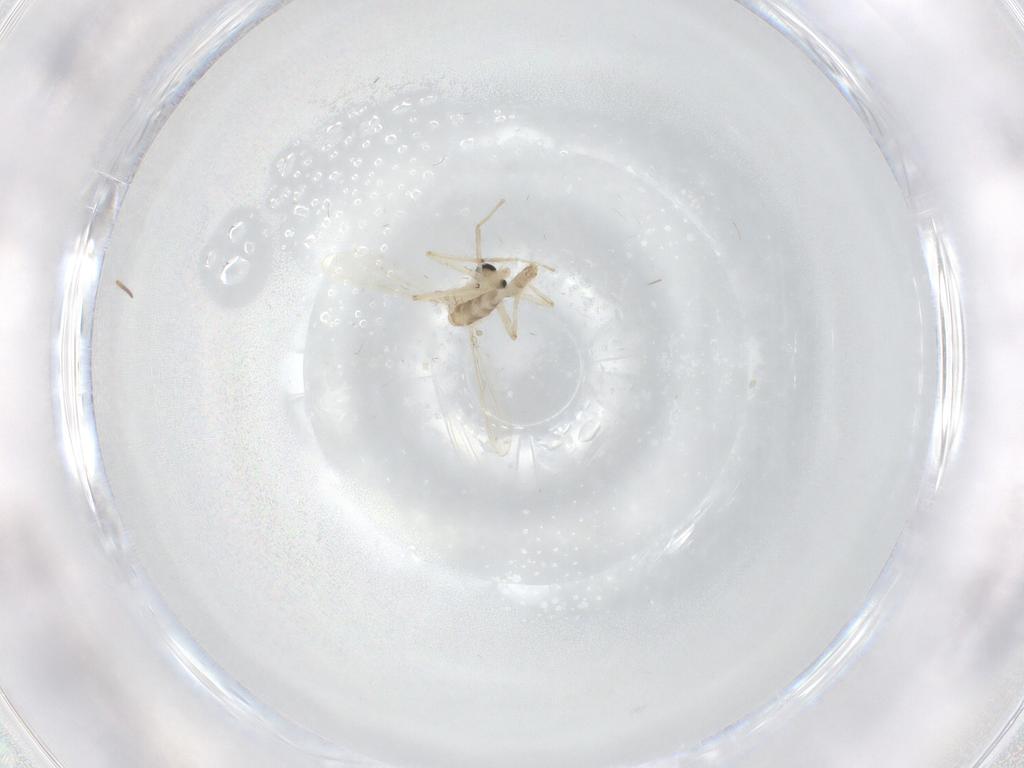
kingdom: Animalia
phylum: Arthropoda
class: Insecta
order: Diptera
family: Chironomidae
